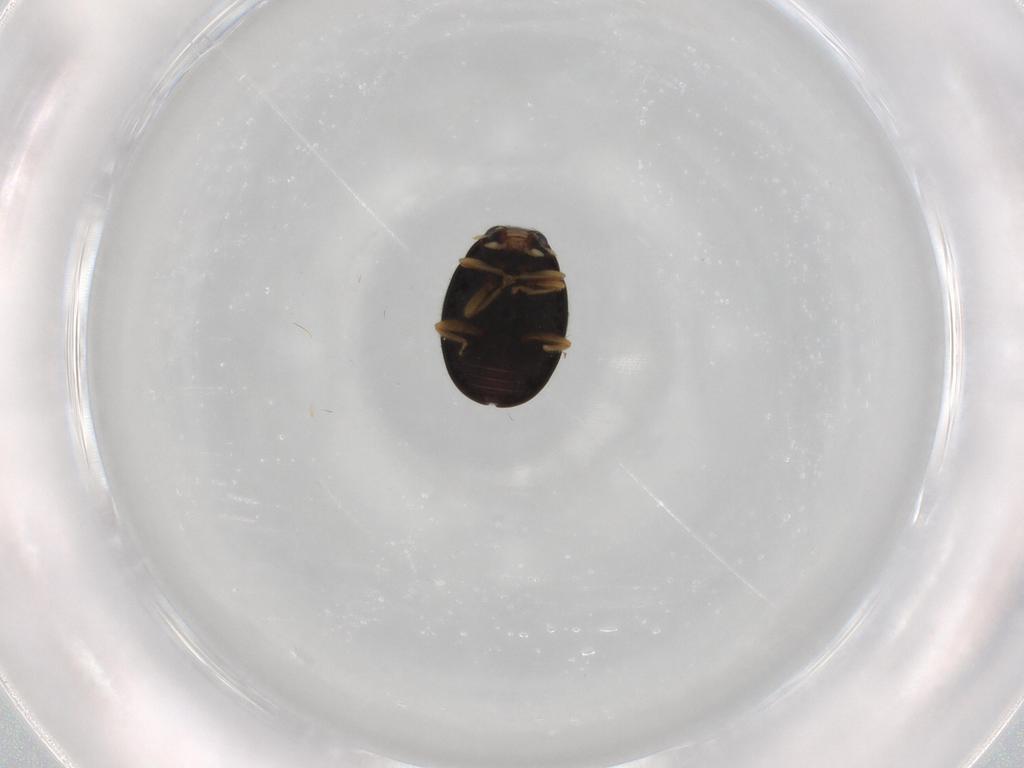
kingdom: Animalia
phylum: Arthropoda
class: Insecta
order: Coleoptera
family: Coccinellidae
